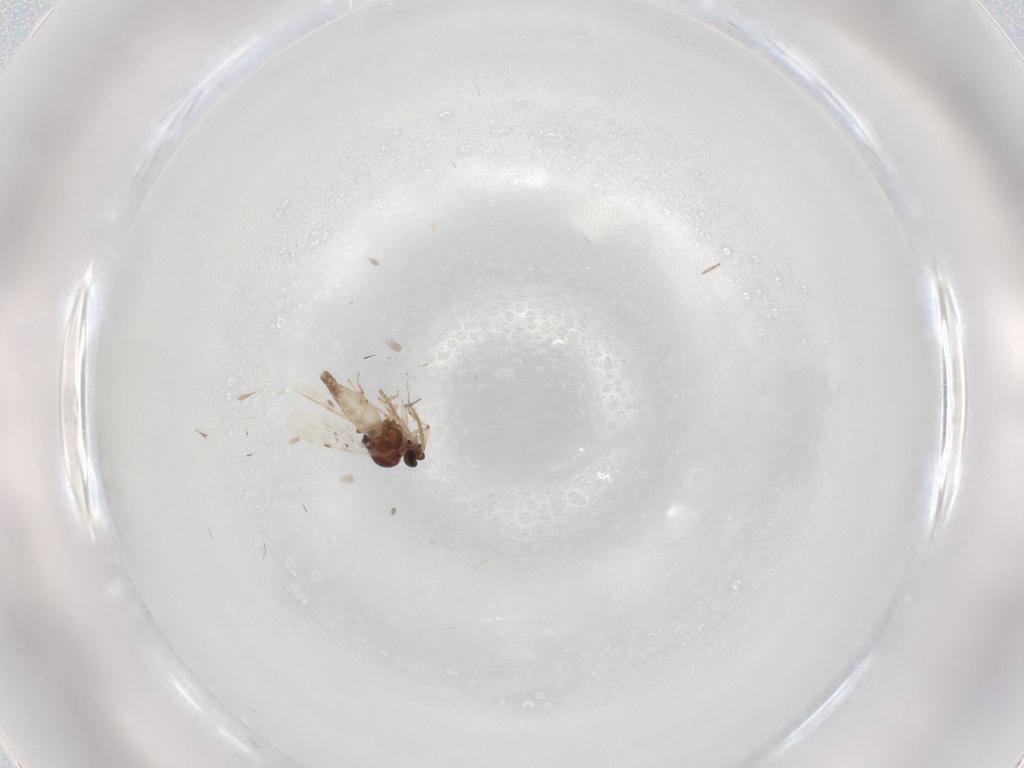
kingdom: Animalia
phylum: Arthropoda
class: Insecta
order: Diptera
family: Ceratopogonidae
